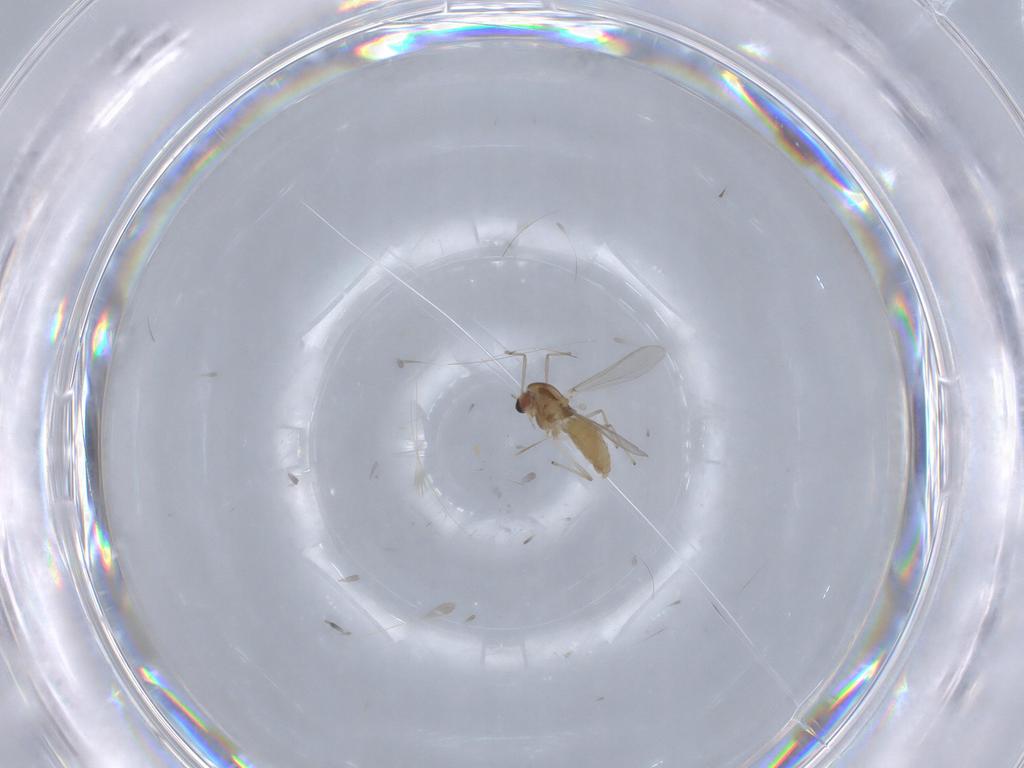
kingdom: Animalia
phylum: Arthropoda
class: Insecta
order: Diptera
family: Chironomidae
